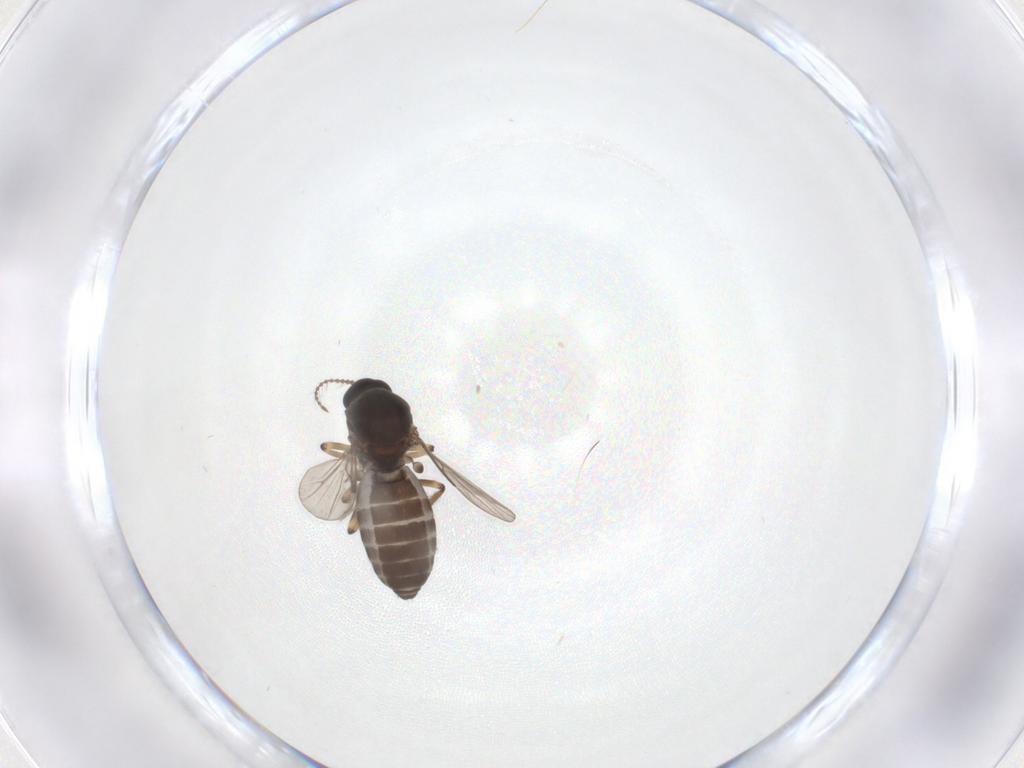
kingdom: Animalia
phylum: Arthropoda
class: Insecta
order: Diptera
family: Ceratopogonidae
